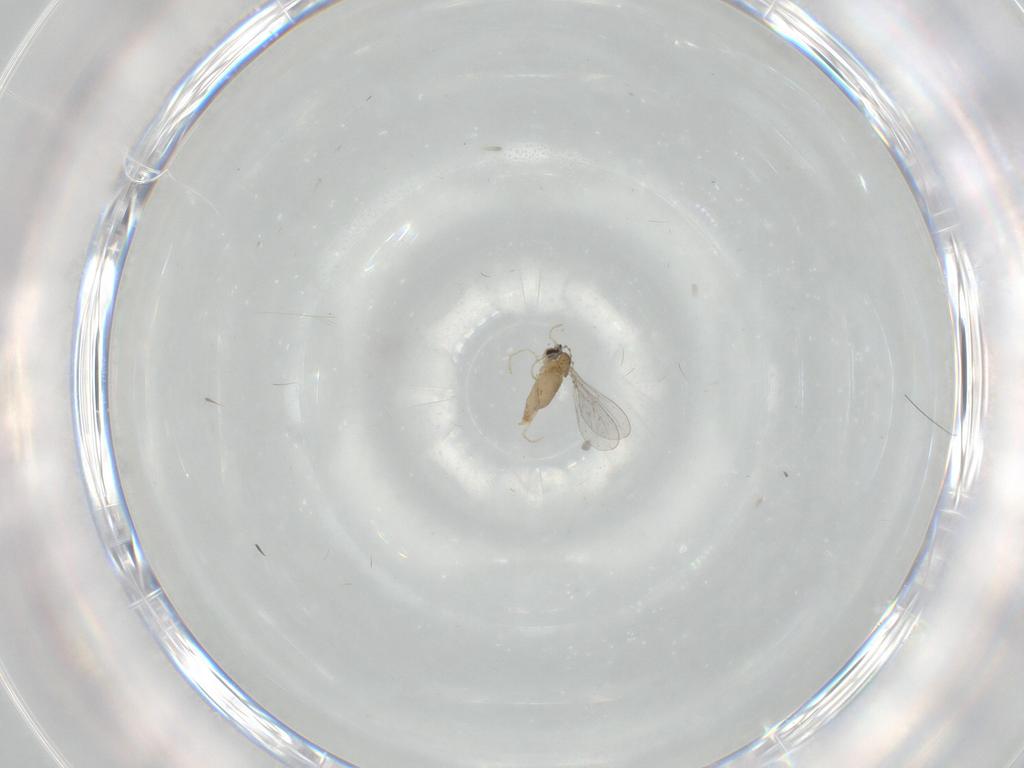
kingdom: Animalia
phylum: Arthropoda
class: Insecta
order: Diptera
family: Cecidomyiidae
